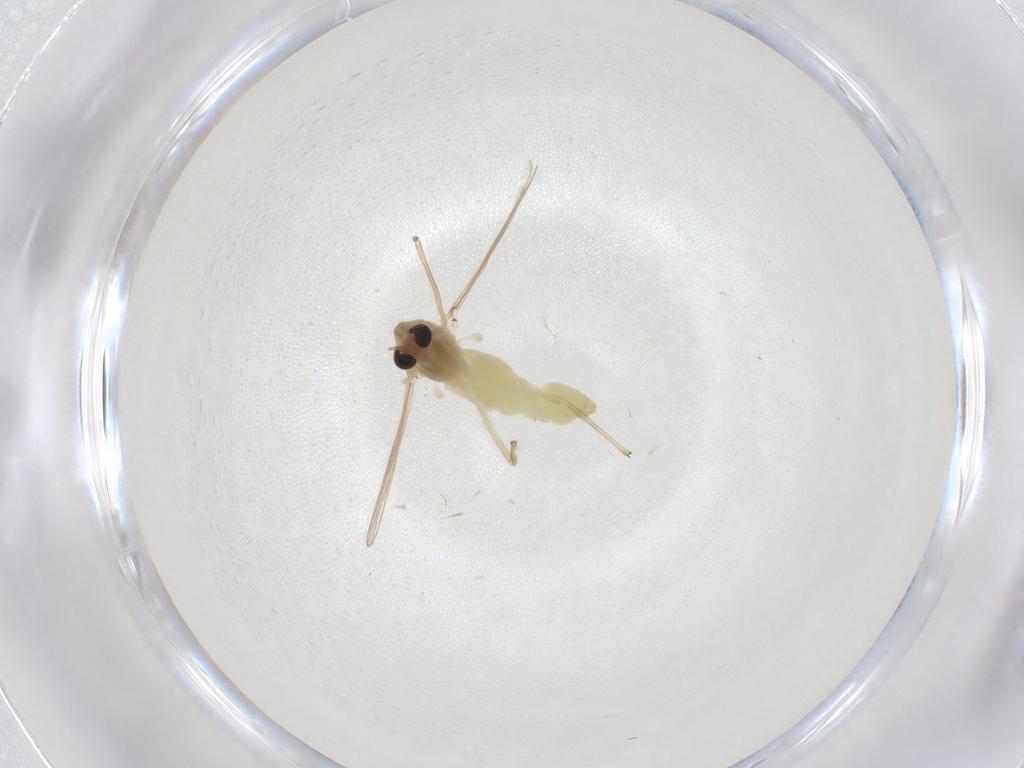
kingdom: Animalia
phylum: Arthropoda
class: Insecta
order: Diptera
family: Chironomidae
